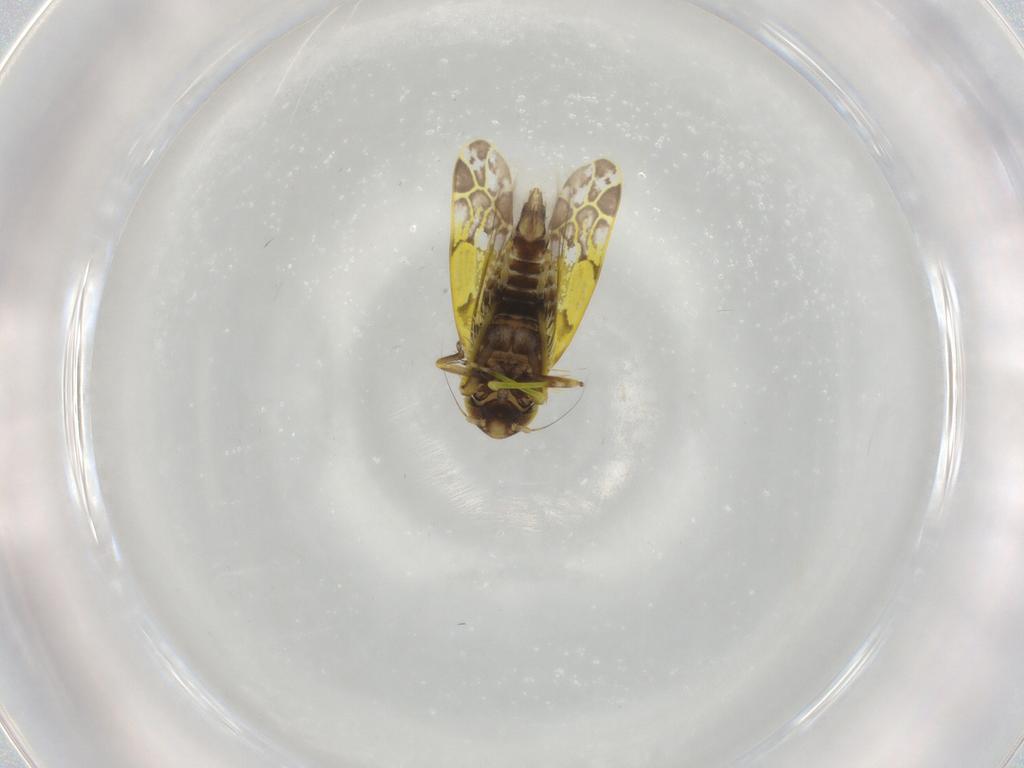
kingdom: Animalia
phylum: Arthropoda
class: Insecta
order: Hemiptera
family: Cicadellidae
